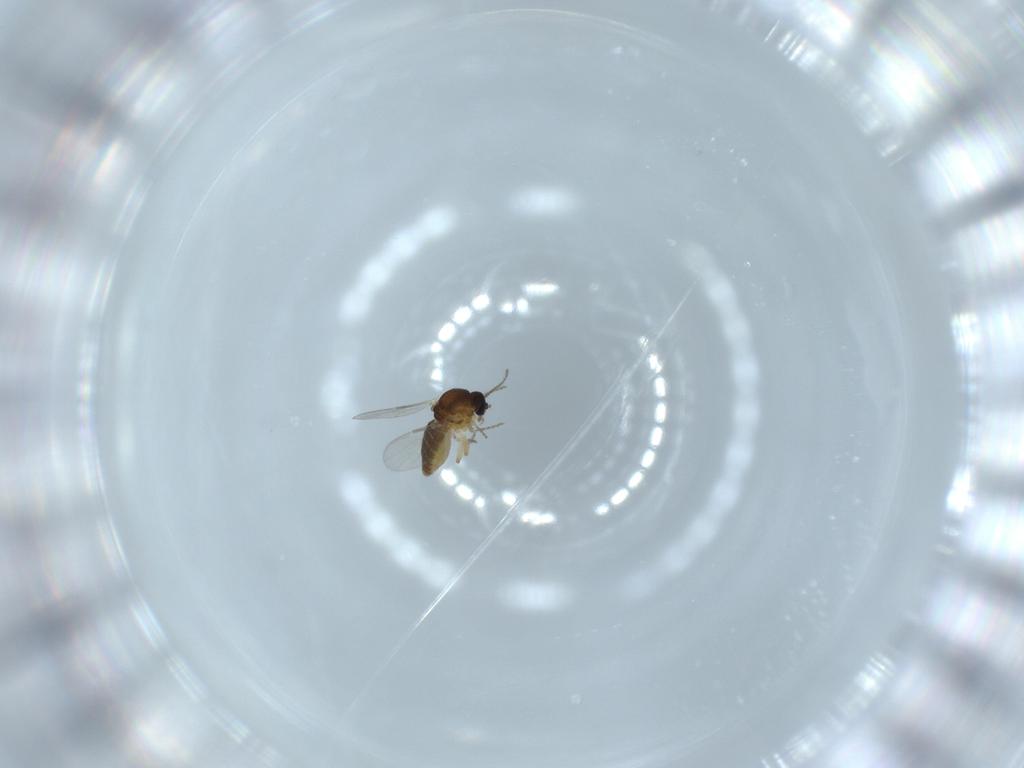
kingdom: Animalia
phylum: Arthropoda
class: Insecta
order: Diptera
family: Ceratopogonidae
